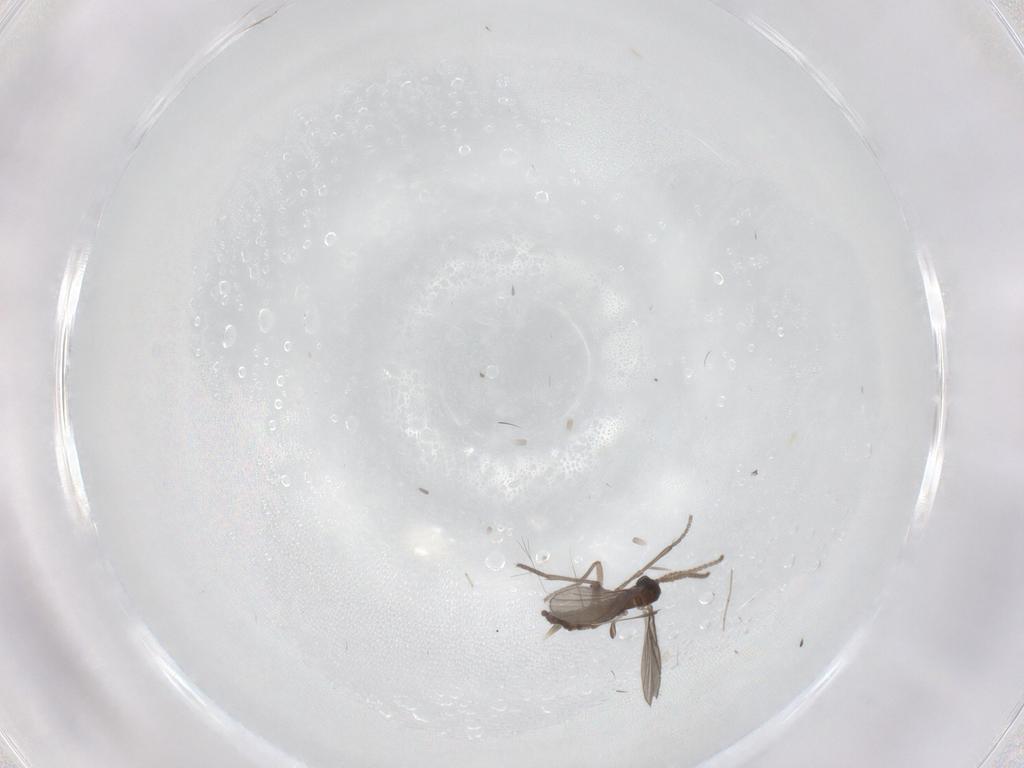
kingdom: Animalia
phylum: Arthropoda
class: Insecta
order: Diptera
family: Sciaridae
